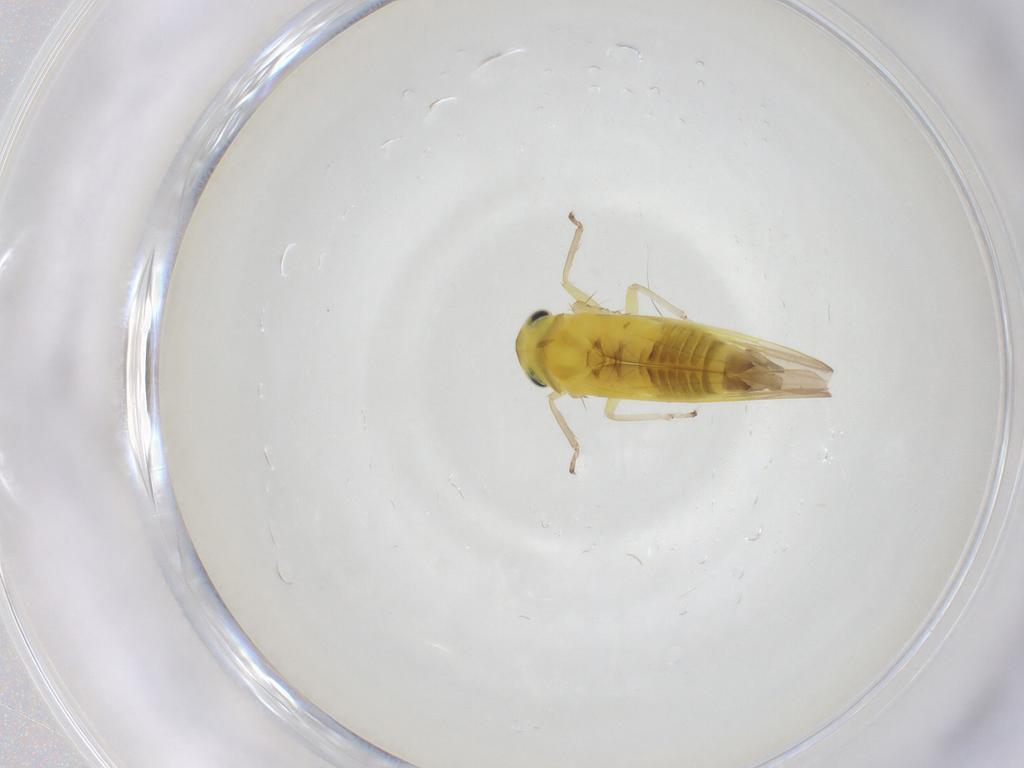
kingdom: Animalia
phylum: Arthropoda
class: Insecta
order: Hemiptera
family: Cicadellidae
